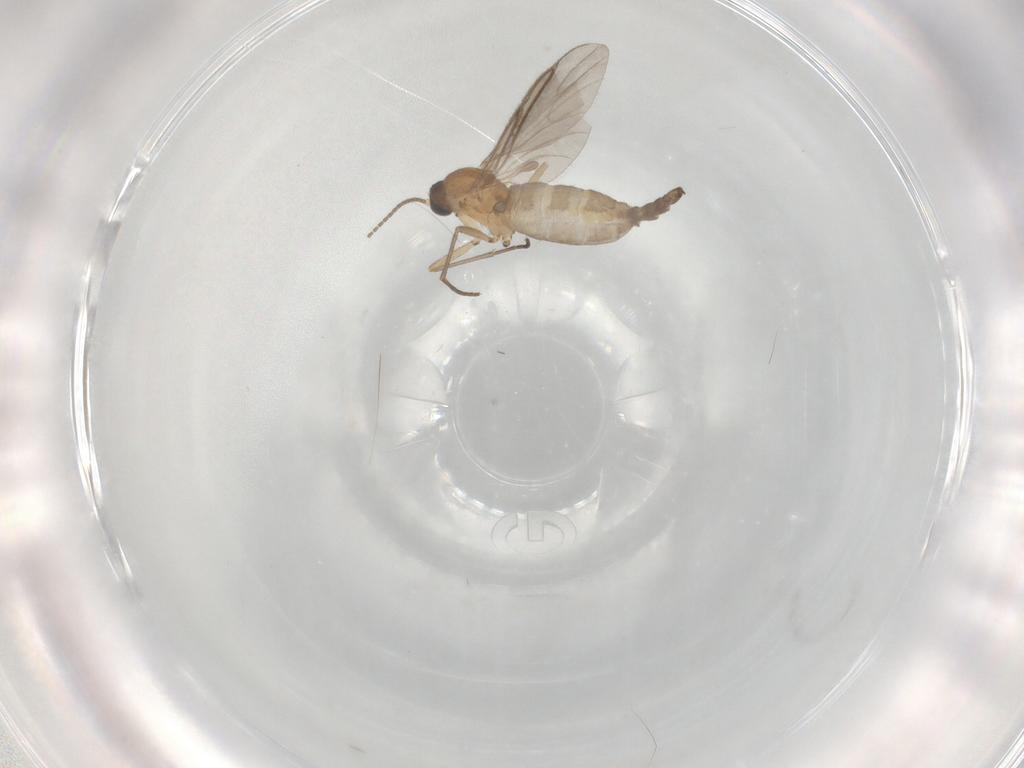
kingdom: Animalia
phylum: Arthropoda
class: Insecta
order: Diptera
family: Sciaridae
